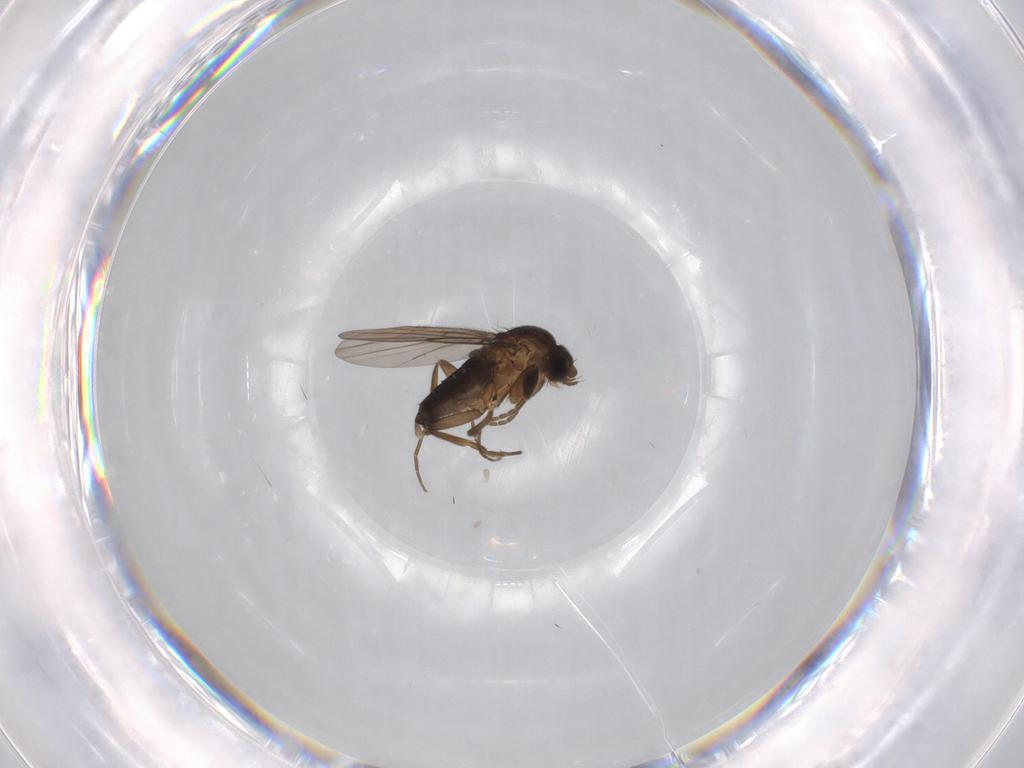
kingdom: Animalia
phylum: Arthropoda
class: Insecta
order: Diptera
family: Phoridae
